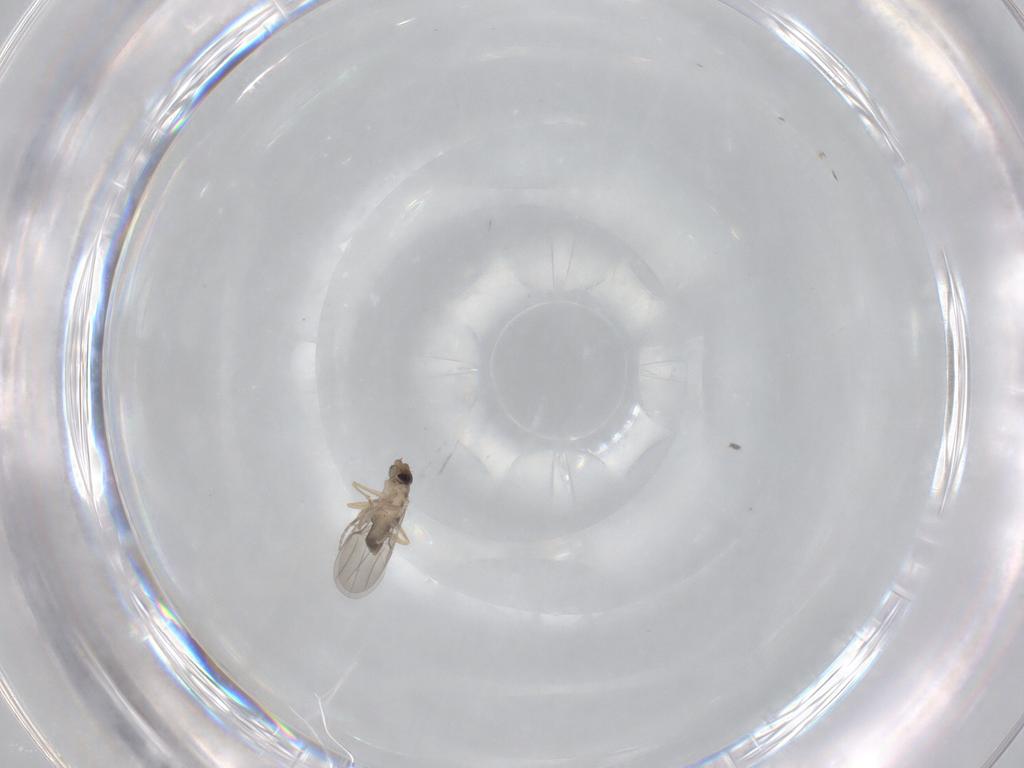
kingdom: Animalia
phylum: Arthropoda
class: Insecta
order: Diptera
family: Phoridae
